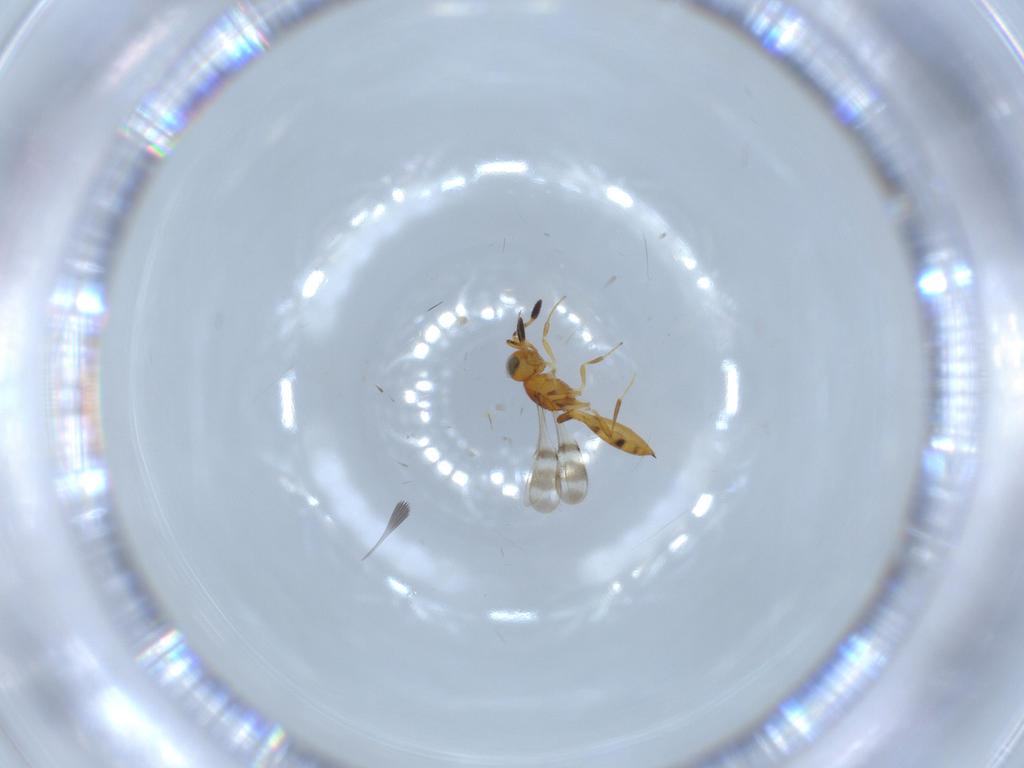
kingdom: Animalia
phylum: Arthropoda
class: Insecta
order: Hymenoptera
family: Scelionidae
